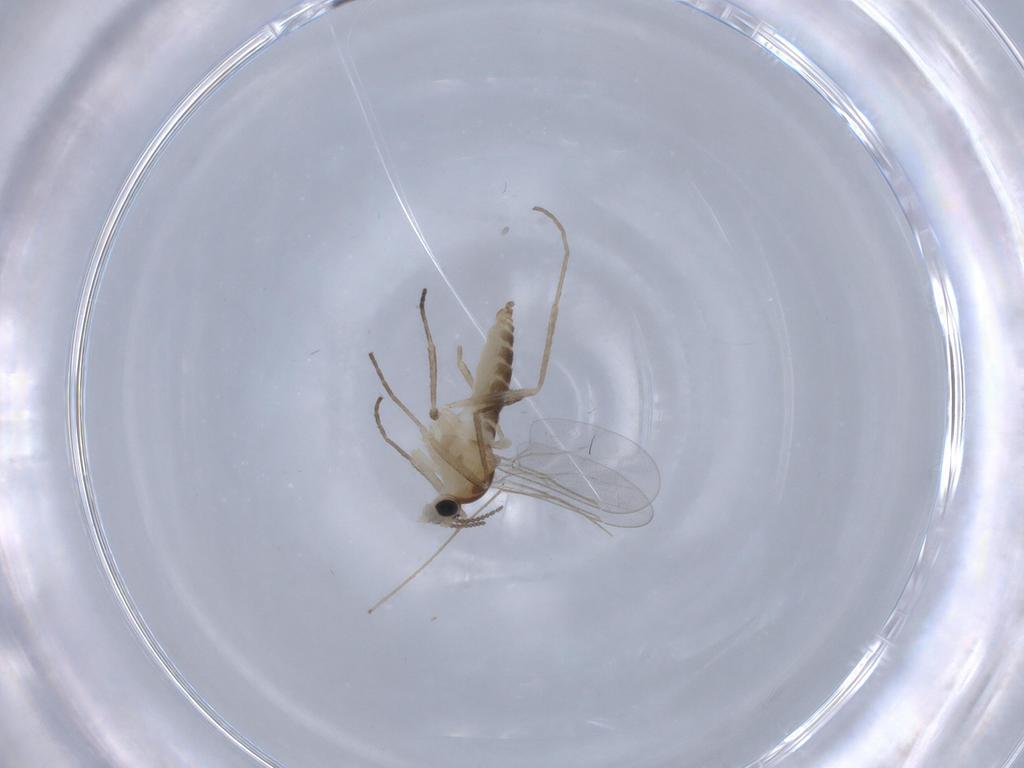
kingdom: Animalia
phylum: Arthropoda
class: Insecta
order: Diptera
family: Cecidomyiidae
